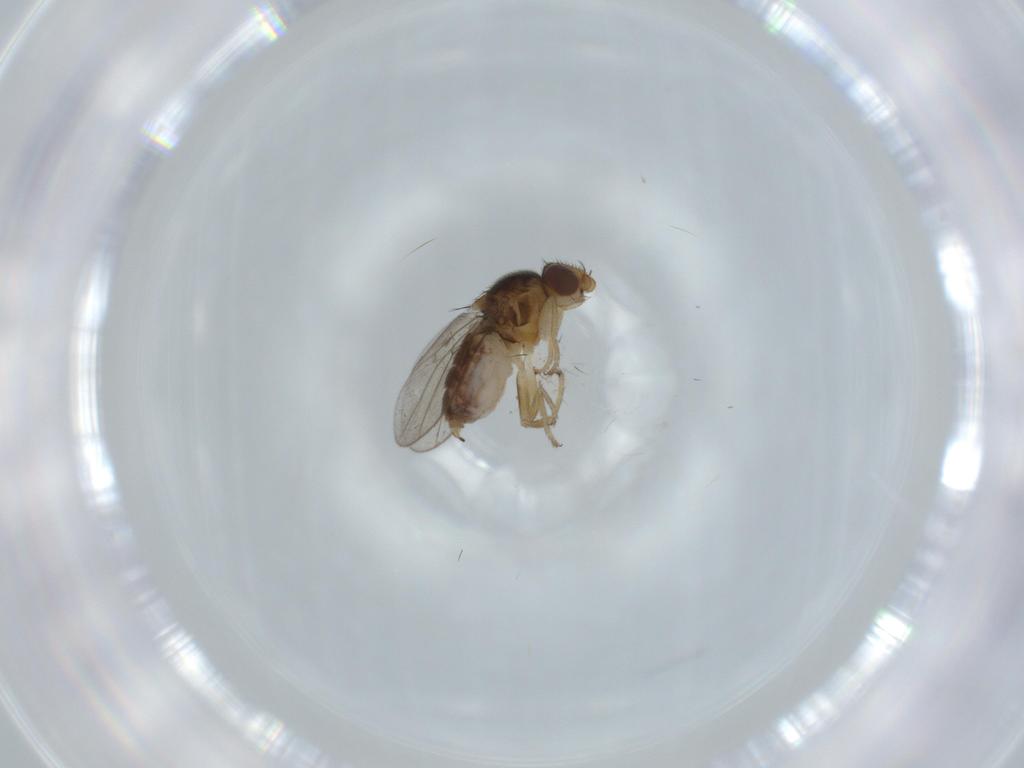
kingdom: Animalia
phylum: Arthropoda
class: Insecta
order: Diptera
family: Chloropidae
